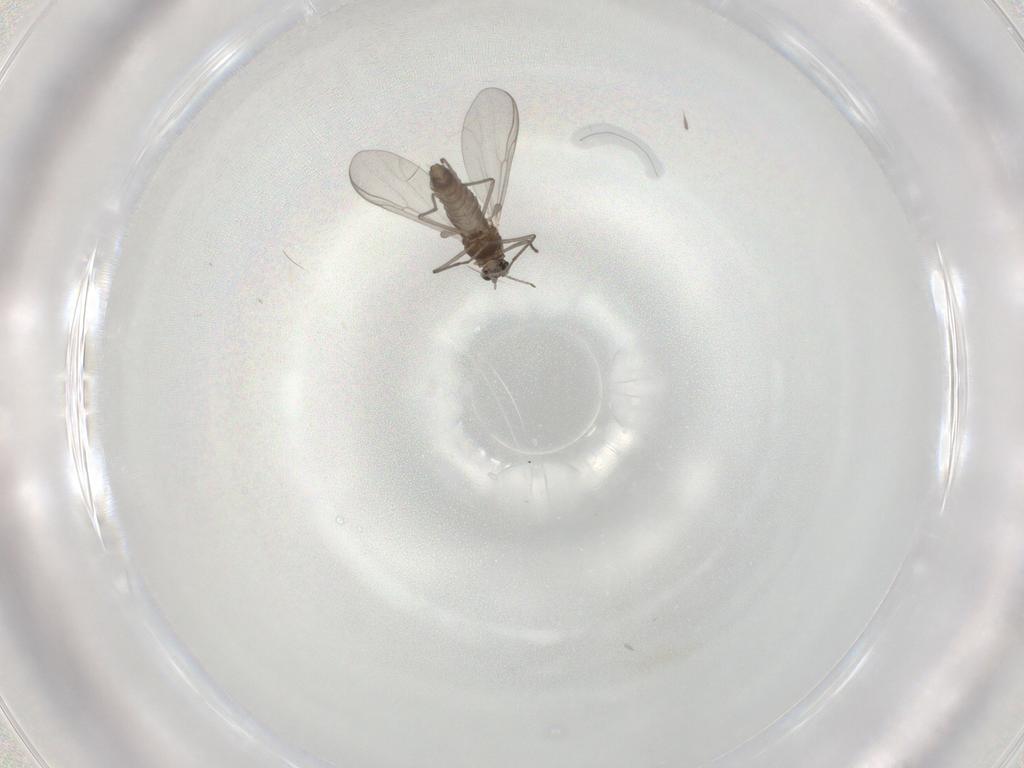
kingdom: Animalia
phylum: Arthropoda
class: Insecta
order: Diptera
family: Chironomidae
